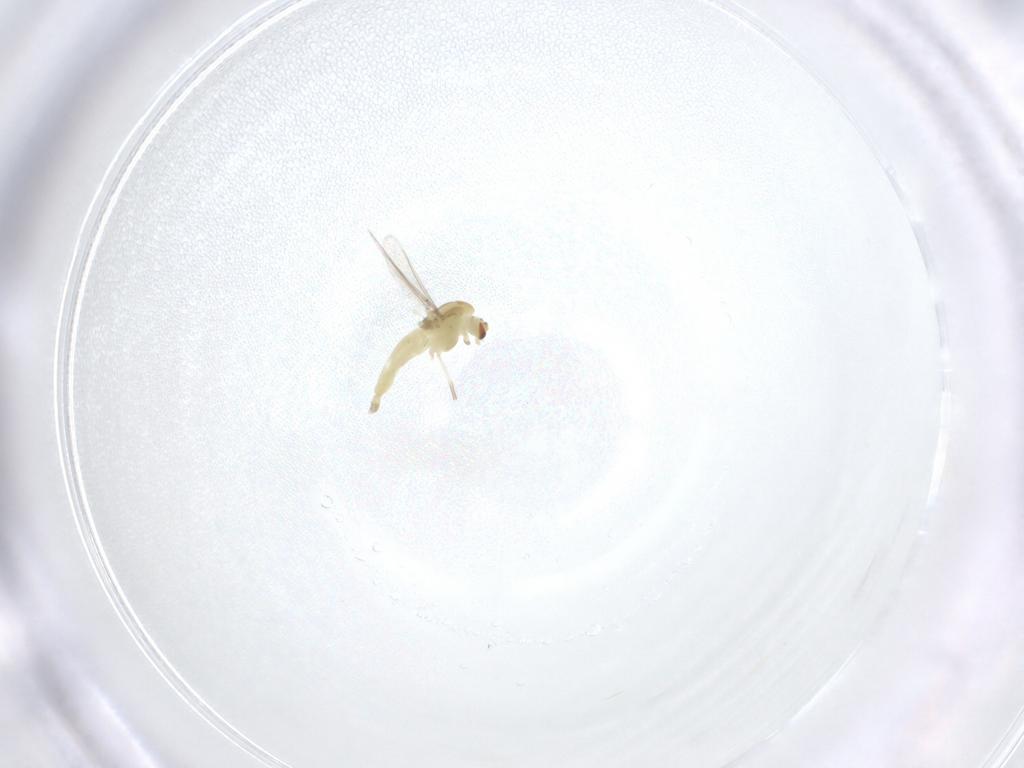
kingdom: Animalia
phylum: Arthropoda
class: Insecta
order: Diptera
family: Chironomidae
